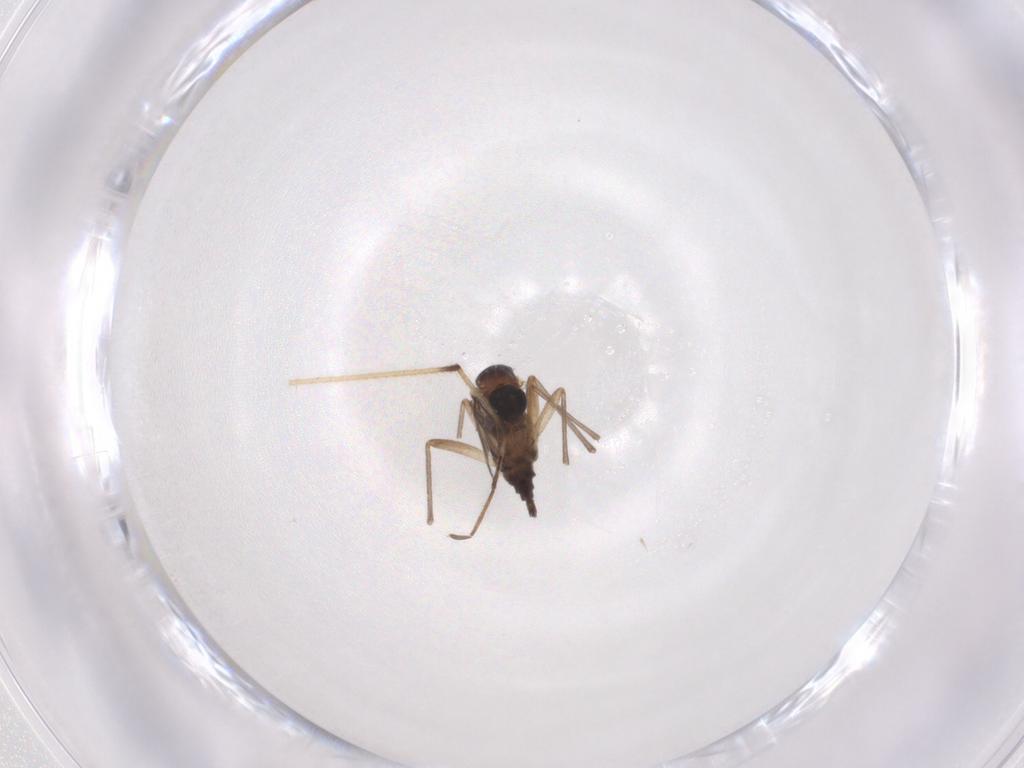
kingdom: Animalia
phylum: Arthropoda
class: Insecta
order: Diptera
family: Sciaridae
